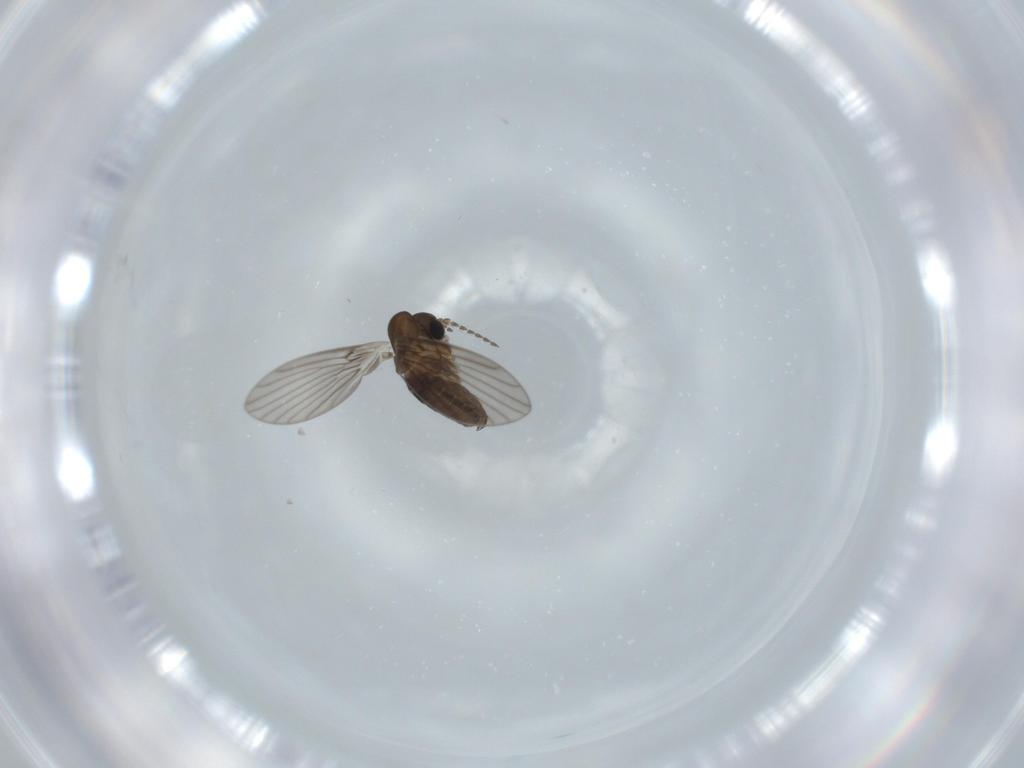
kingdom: Animalia
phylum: Arthropoda
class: Insecta
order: Diptera
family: Psychodidae
